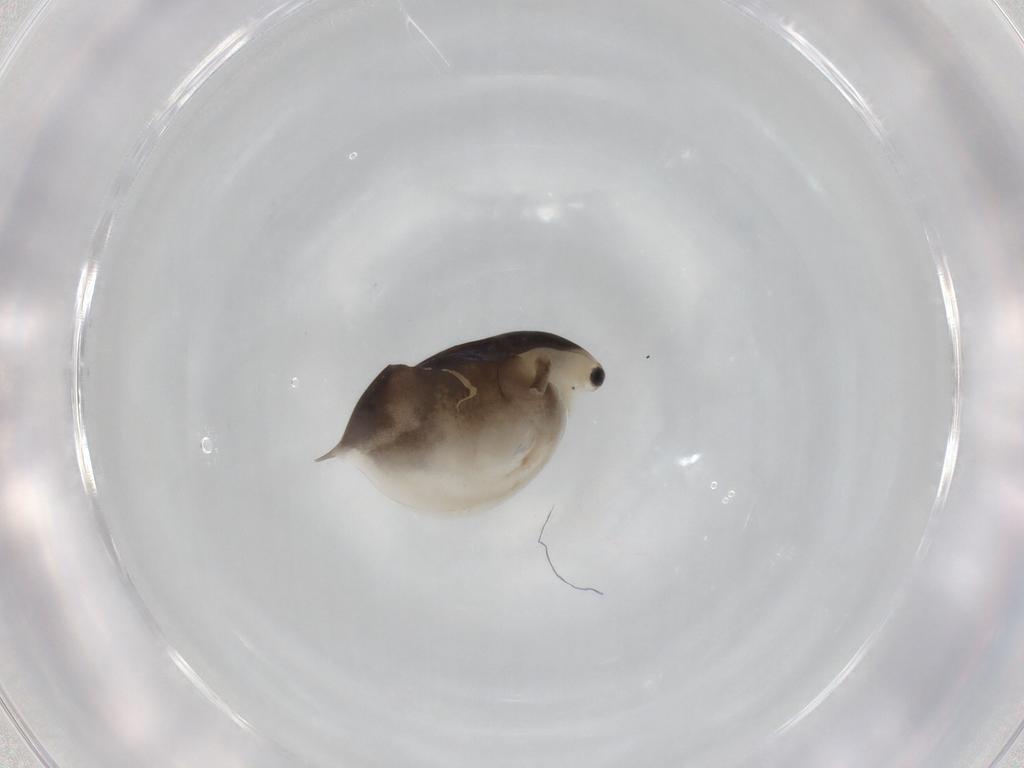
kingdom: Animalia
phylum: Arthropoda
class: Branchiopoda
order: Diplostraca
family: Daphniidae
